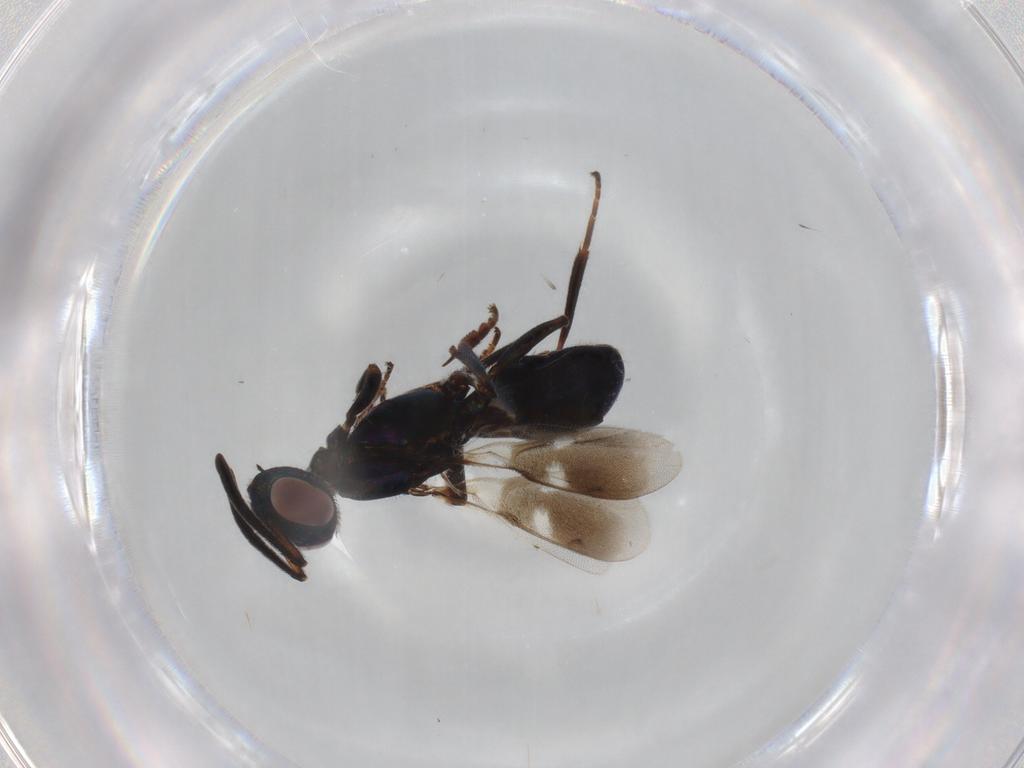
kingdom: Animalia
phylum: Arthropoda
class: Insecta
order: Hymenoptera
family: Eupelmidae
